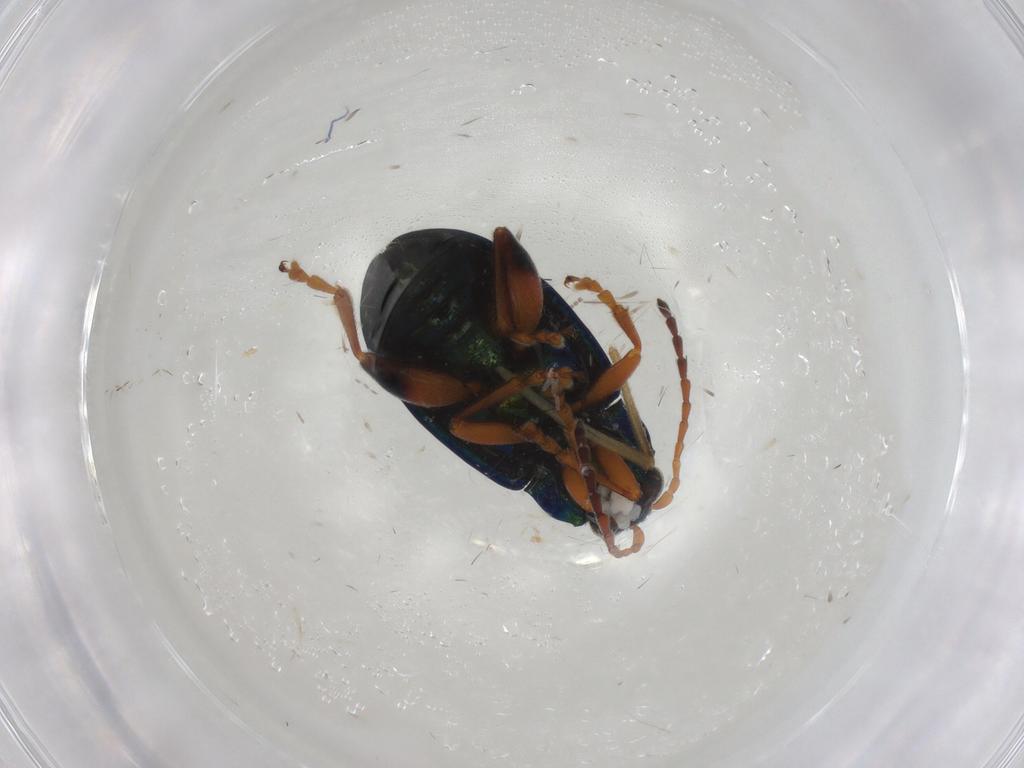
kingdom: Animalia
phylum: Arthropoda
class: Insecta
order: Coleoptera
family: Chrysomelidae
